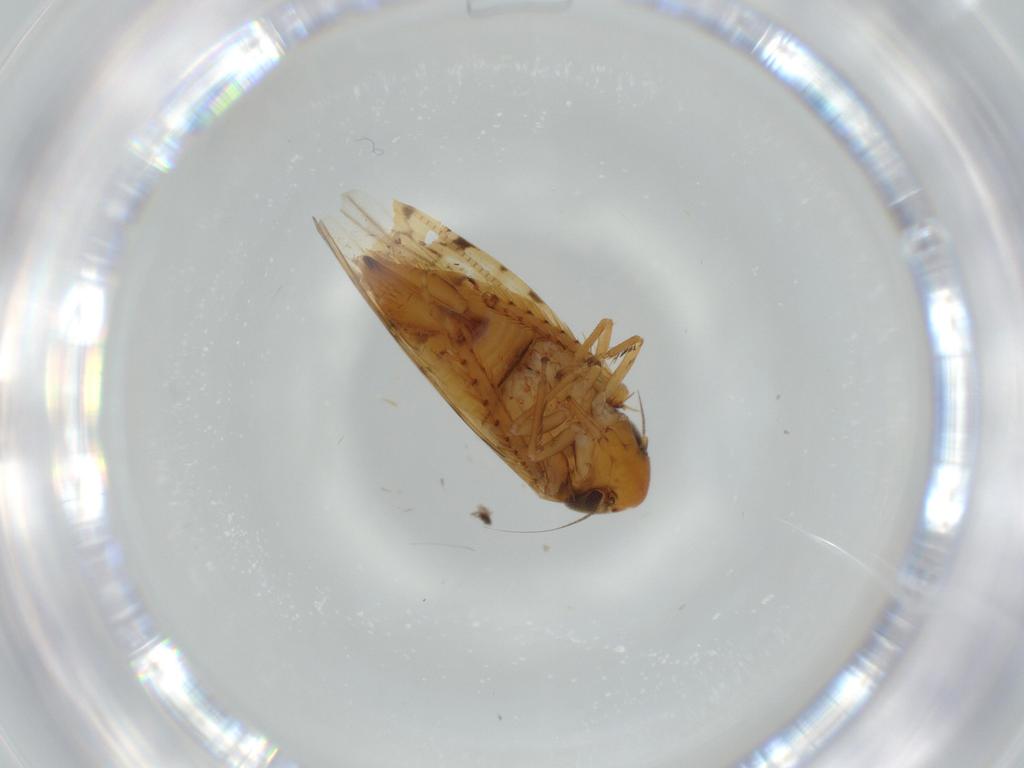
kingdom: Animalia
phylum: Arthropoda
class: Insecta
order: Hemiptera
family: Cicadellidae
